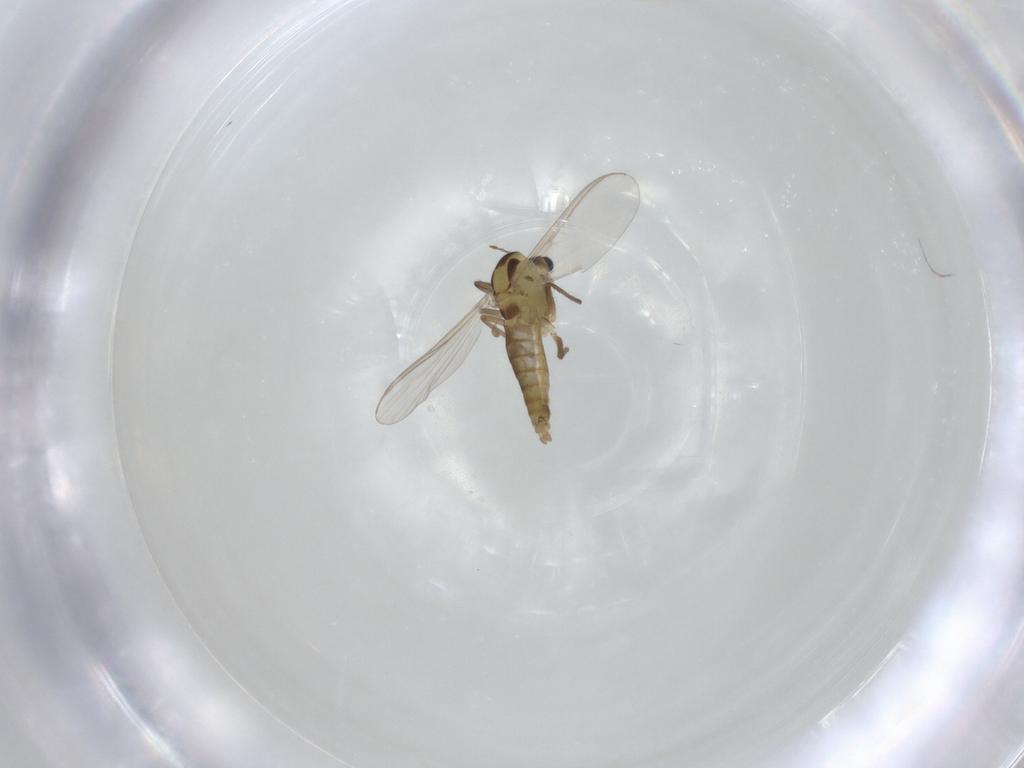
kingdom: Animalia
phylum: Arthropoda
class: Insecta
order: Diptera
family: Chironomidae
